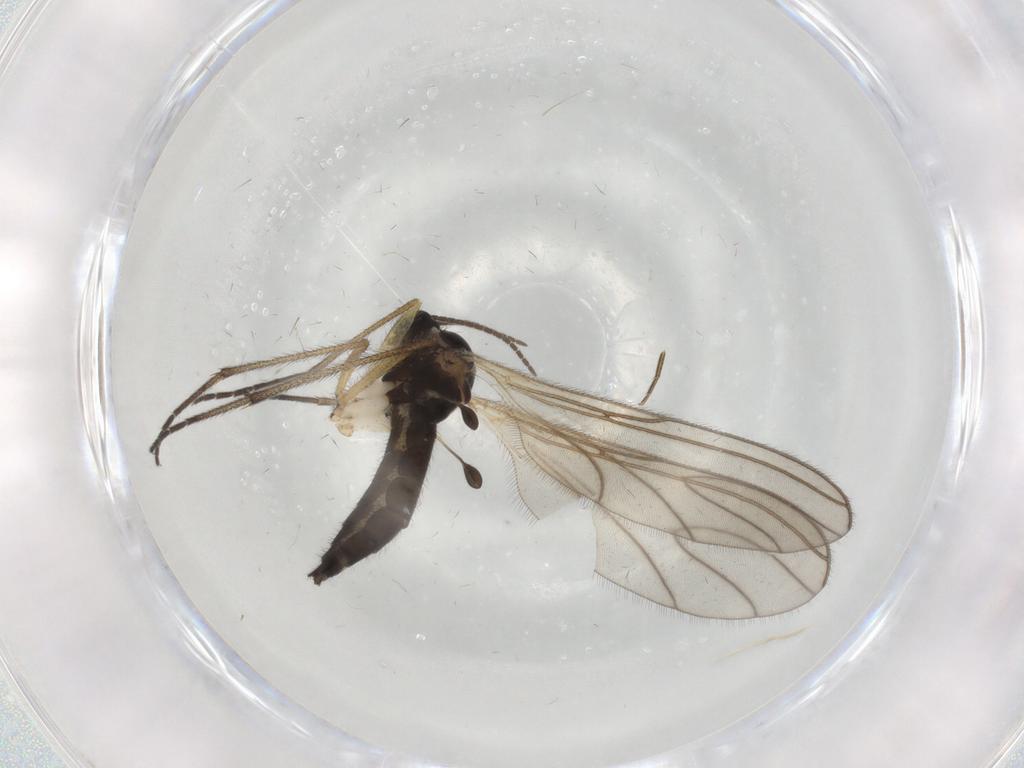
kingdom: Animalia
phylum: Arthropoda
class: Insecta
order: Diptera
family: Sciaridae
